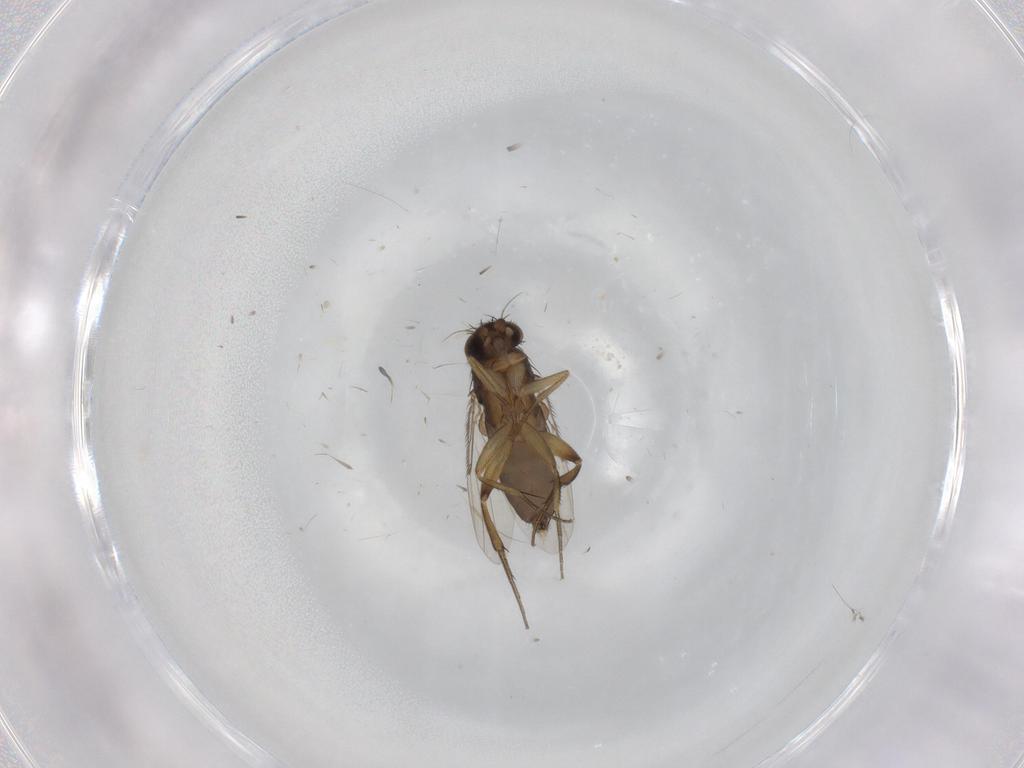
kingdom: Animalia
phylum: Arthropoda
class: Insecta
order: Diptera
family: Phoridae
